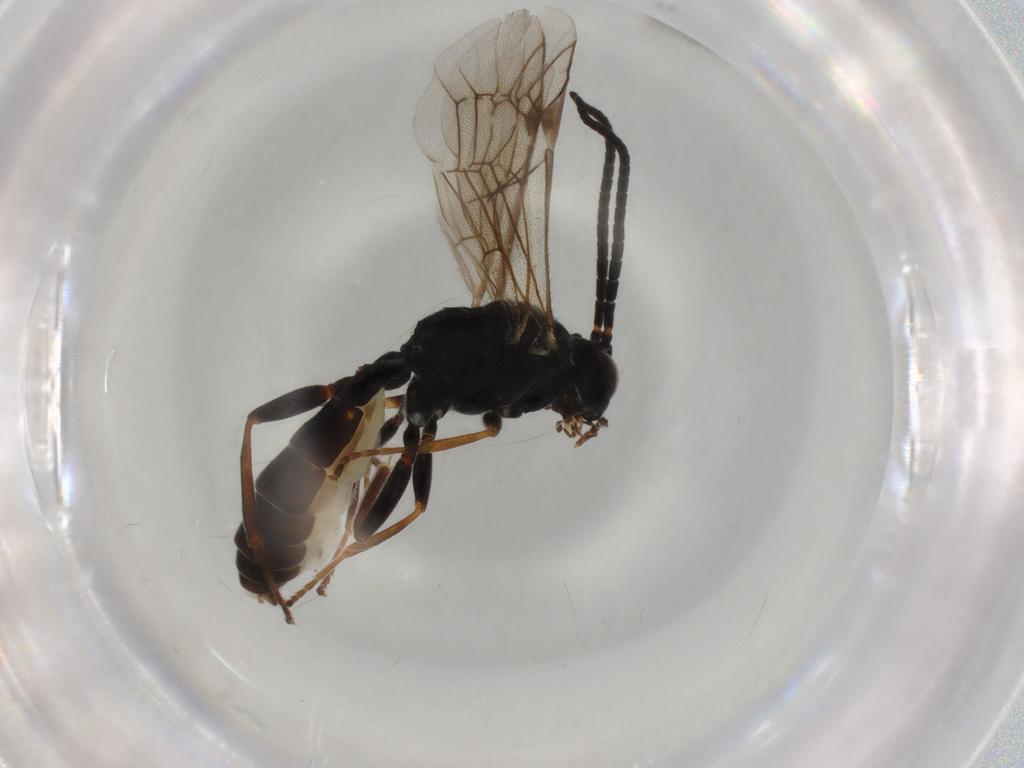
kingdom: Animalia
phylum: Arthropoda
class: Insecta
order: Hymenoptera
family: Ichneumonidae
